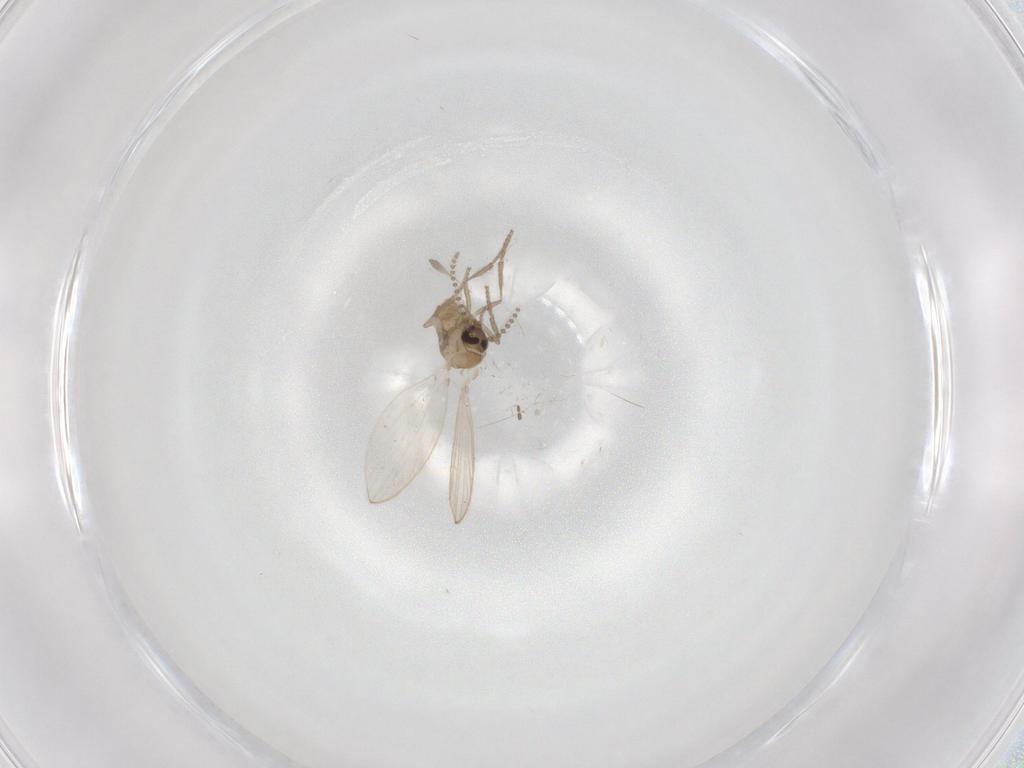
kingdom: Animalia
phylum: Arthropoda
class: Insecta
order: Diptera
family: Psychodidae
